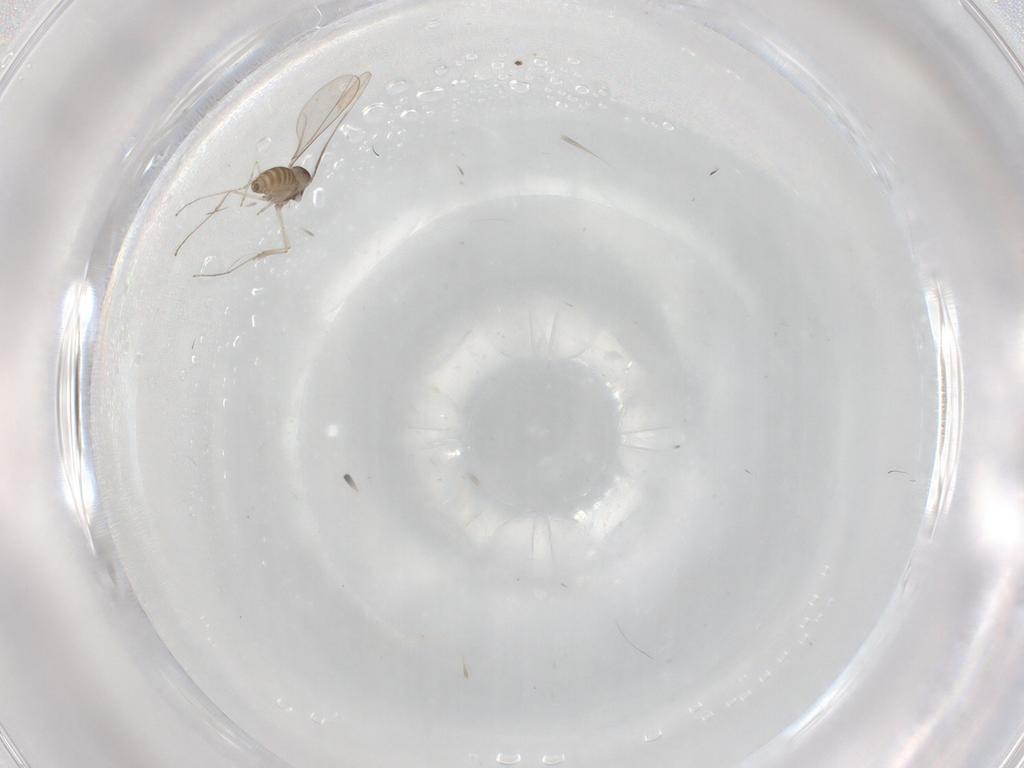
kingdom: Animalia
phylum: Arthropoda
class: Insecta
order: Diptera
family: Cecidomyiidae
